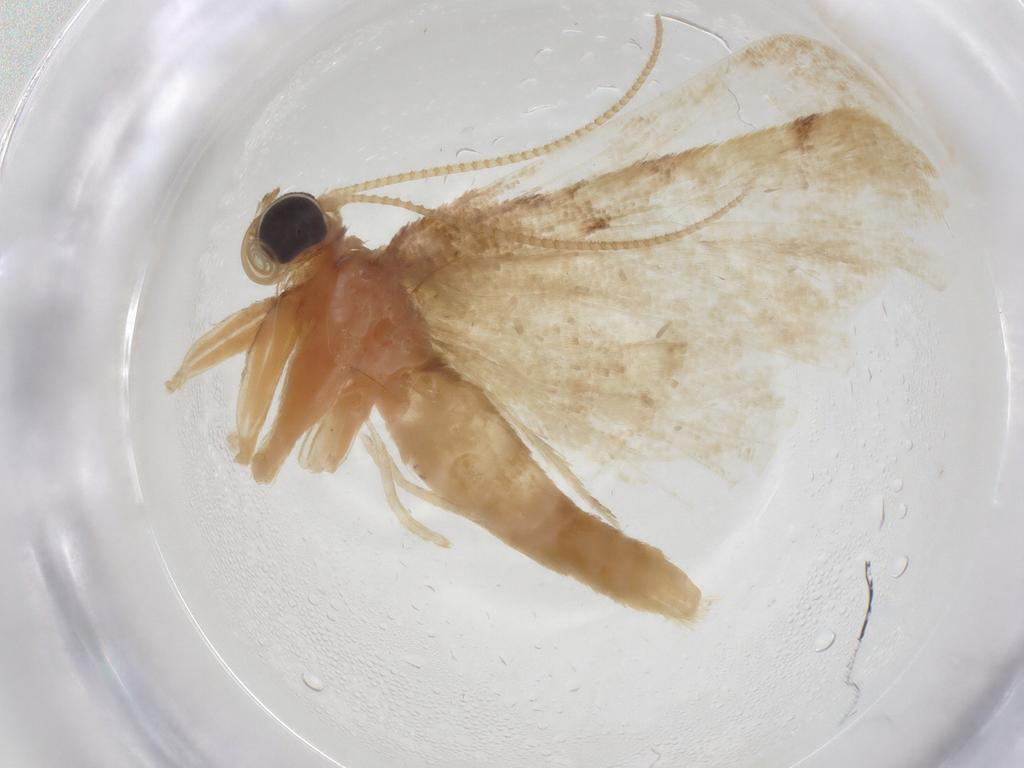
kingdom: Animalia
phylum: Arthropoda
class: Insecta
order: Lepidoptera
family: Geometridae
